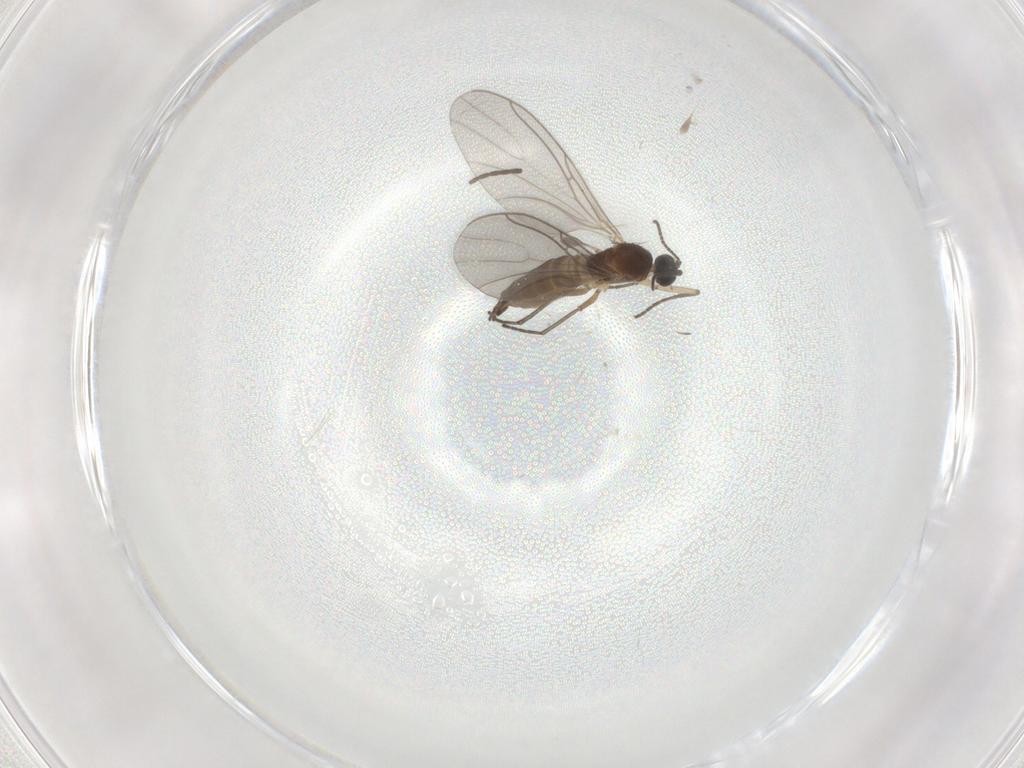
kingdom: Animalia
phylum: Arthropoda
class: Insecta
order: Diptera
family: Sciaridae
